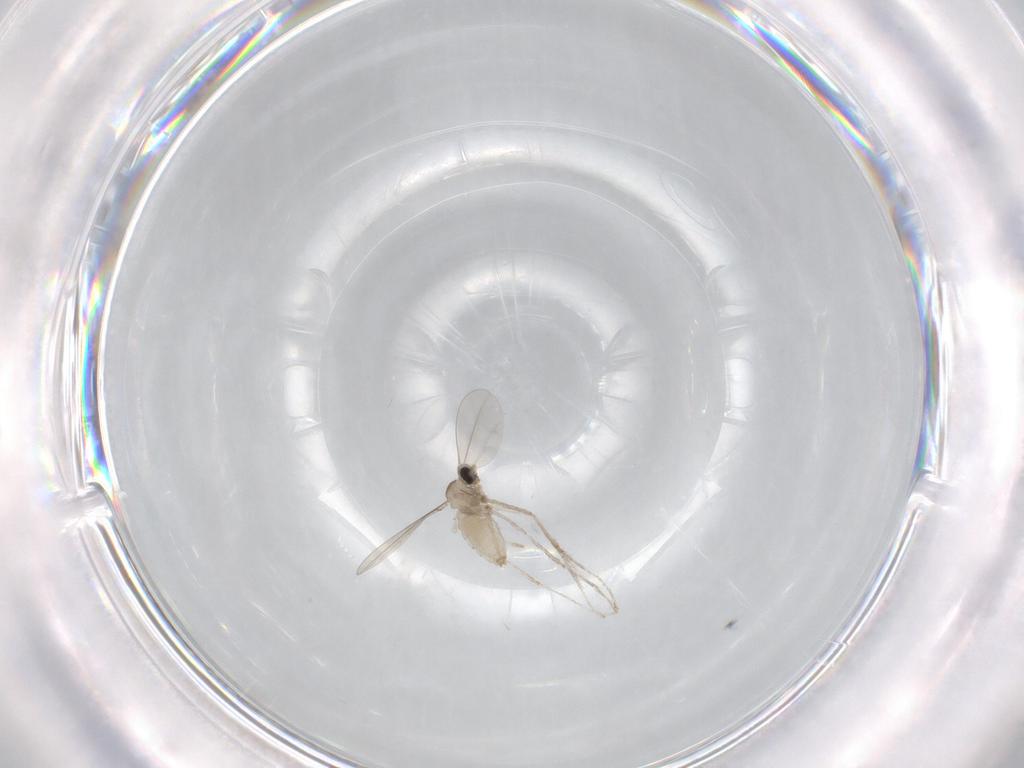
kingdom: Animalia
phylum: Arthropoda
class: Insecta
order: Diptera
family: Cecidomyiidae
